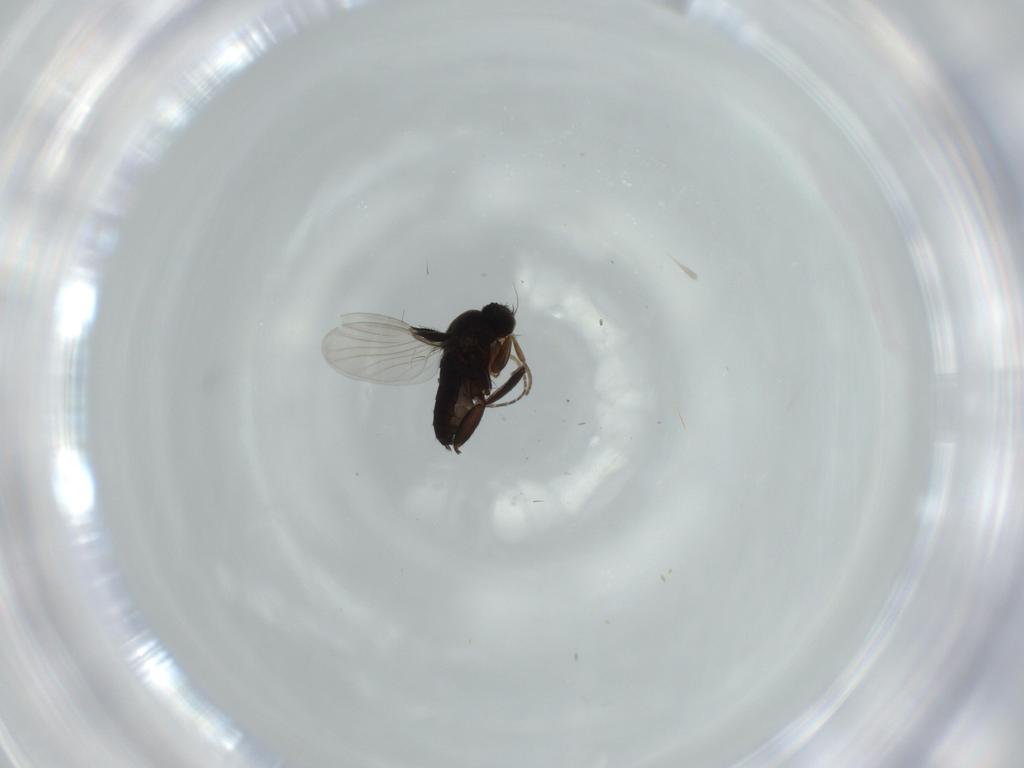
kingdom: Animalia
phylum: Arthropoda
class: Insecta
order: Diptera
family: Phoridae
